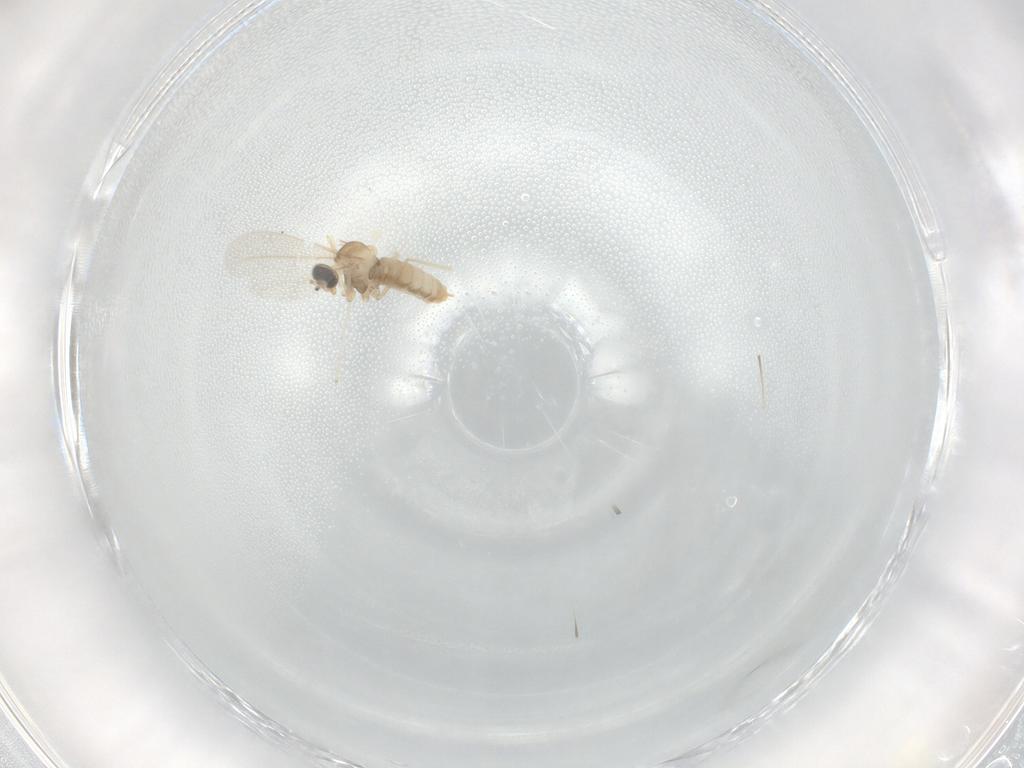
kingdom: Animalia
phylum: Arthropoda
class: Insecta
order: Diptera
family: Cecidomyiidae
